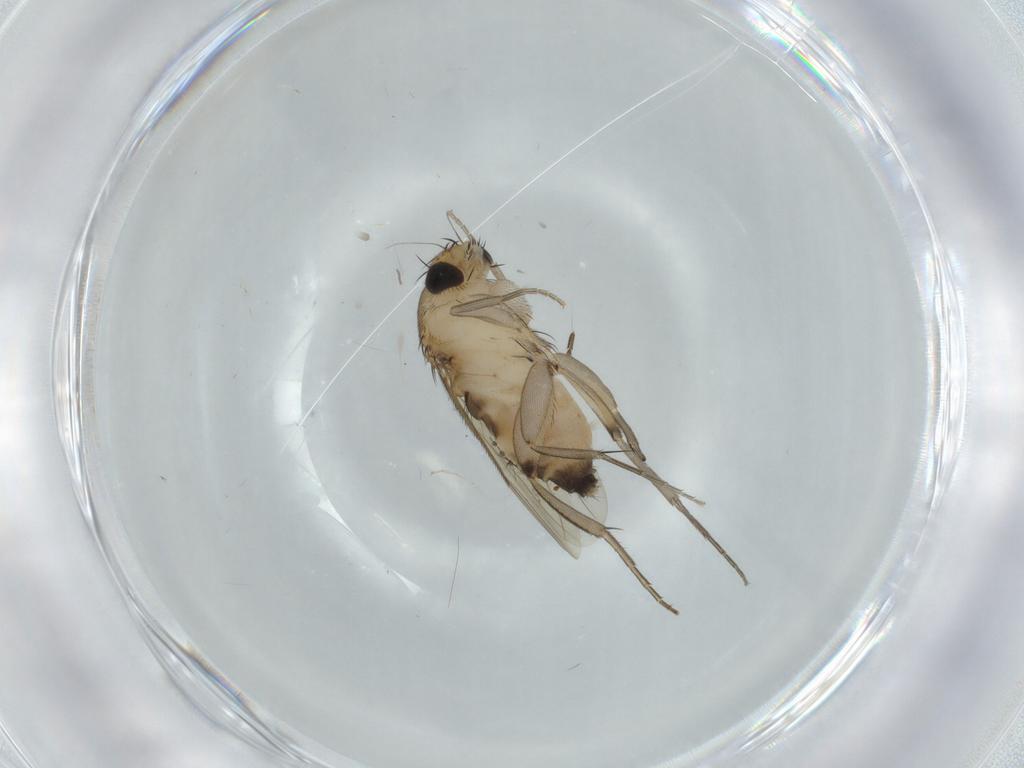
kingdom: Animalia
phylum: Arthropoda
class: Insecta
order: Diptera
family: Phoridae
